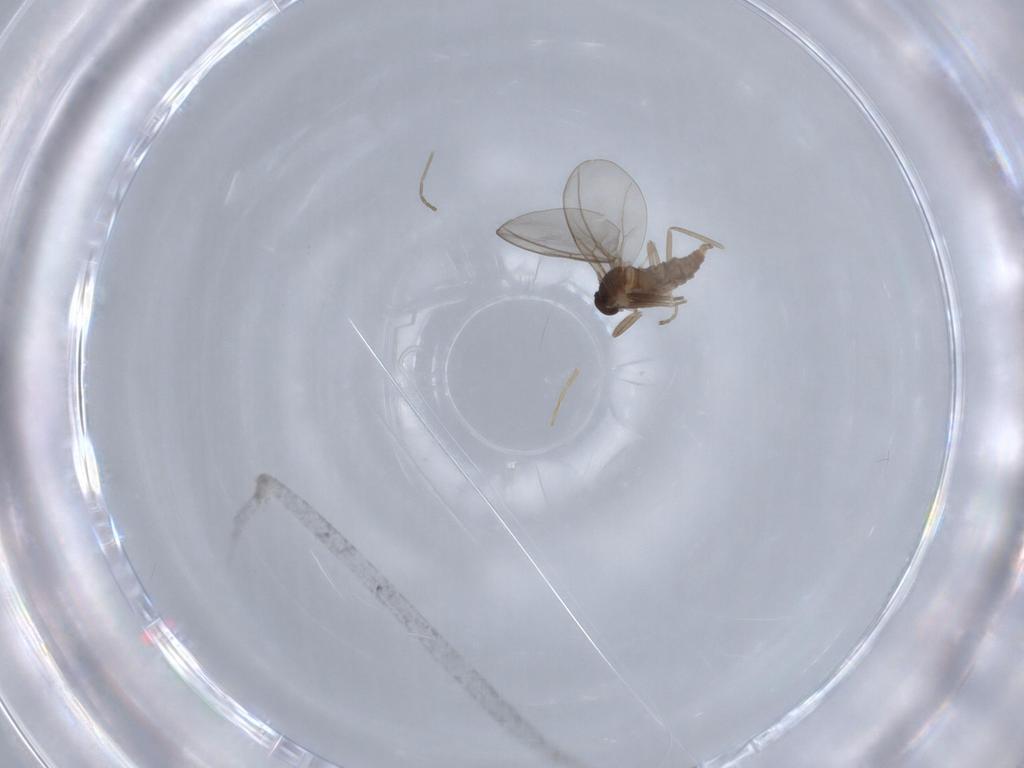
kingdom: Animalia
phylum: Arthropoda
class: Insecta
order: Diptera
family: Cecidomyiidae
